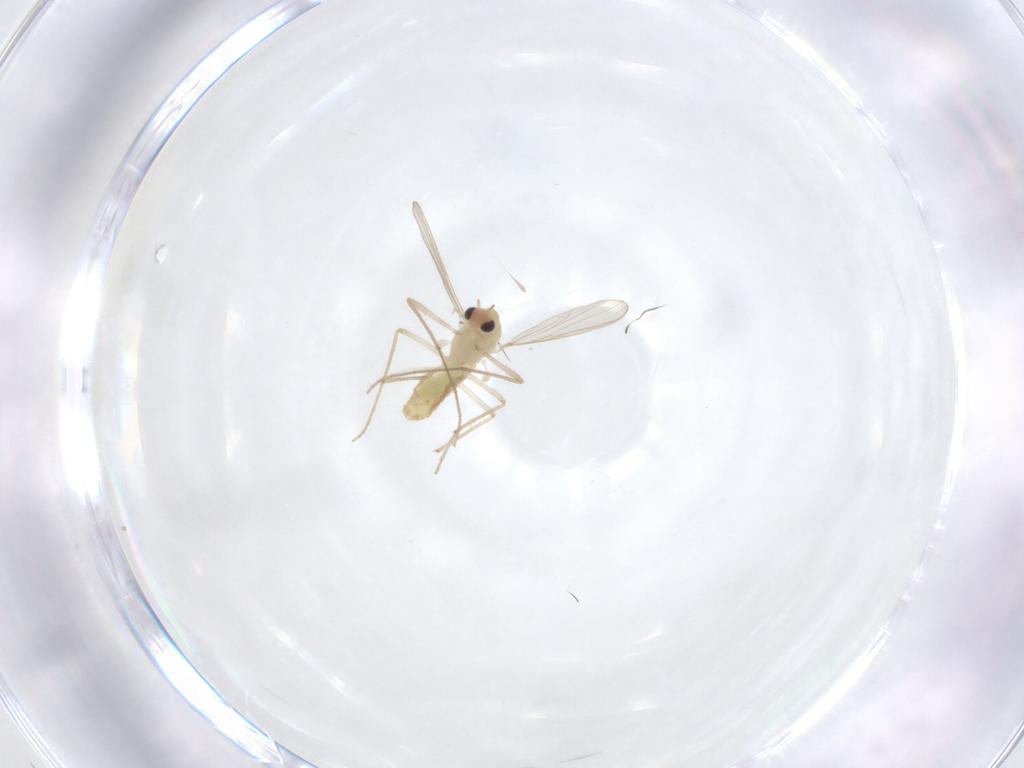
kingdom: Animalia
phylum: Arthropoda
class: Insecta
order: Diptera
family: Chironomidae
